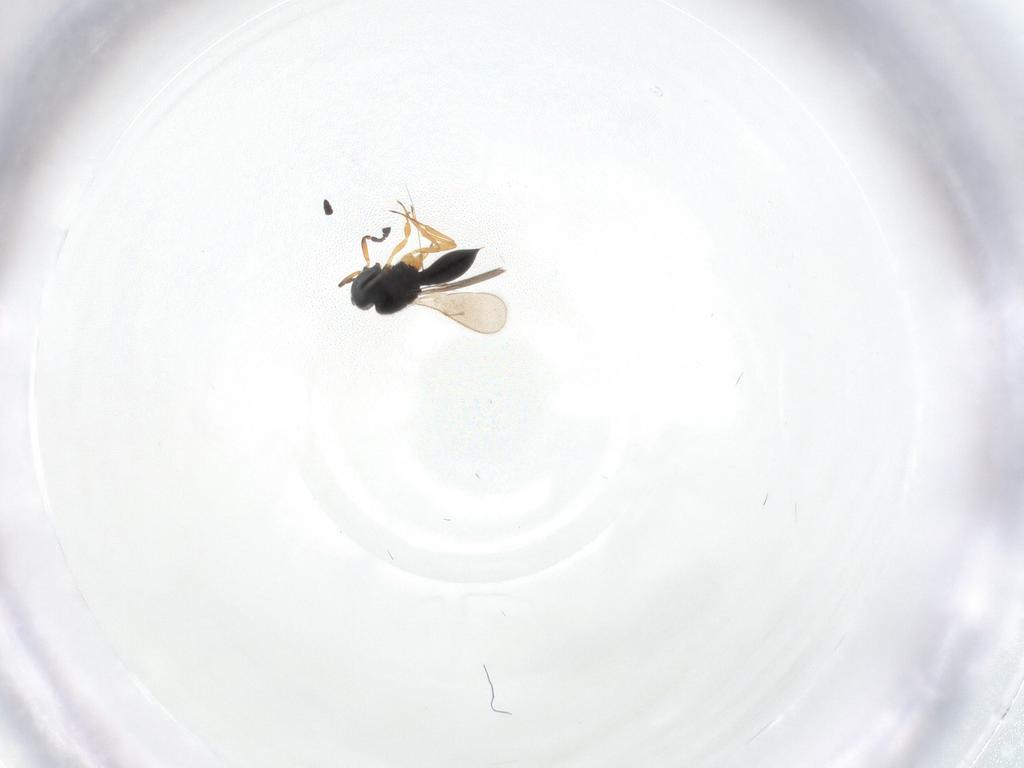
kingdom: Animalia
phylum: Arthropoda
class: Insecta
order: Hymenoptera
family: Scelionidae
